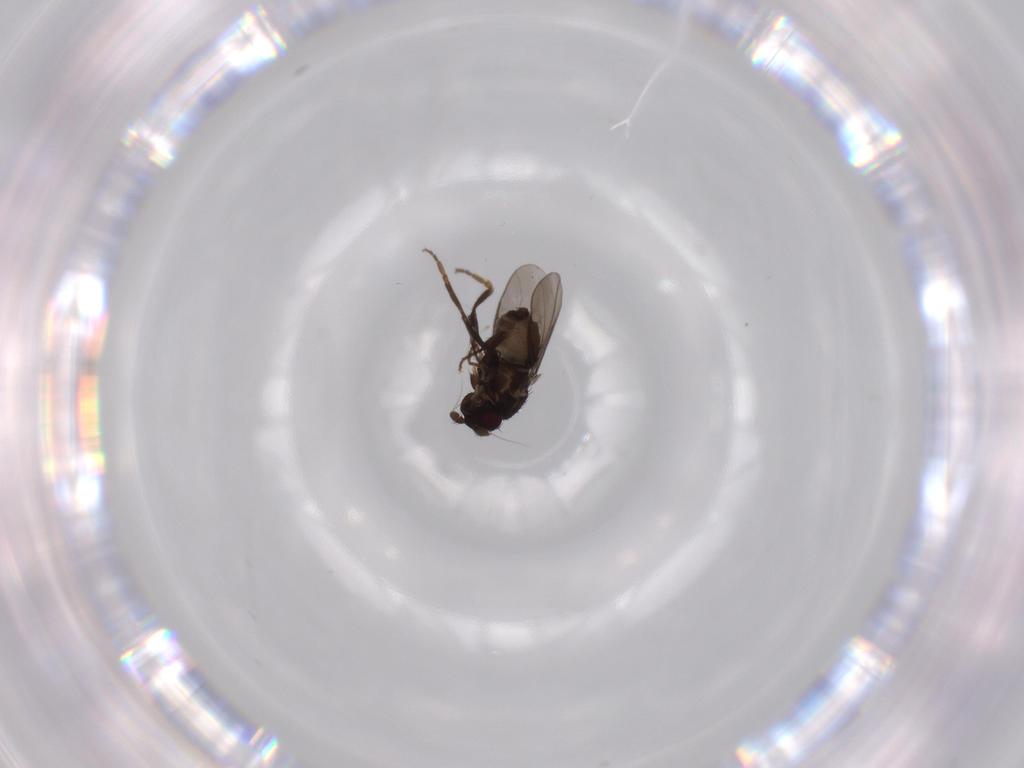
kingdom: Animalia
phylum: Arthropoda
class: Insecta
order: Diptera
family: Sphaeroceridae
